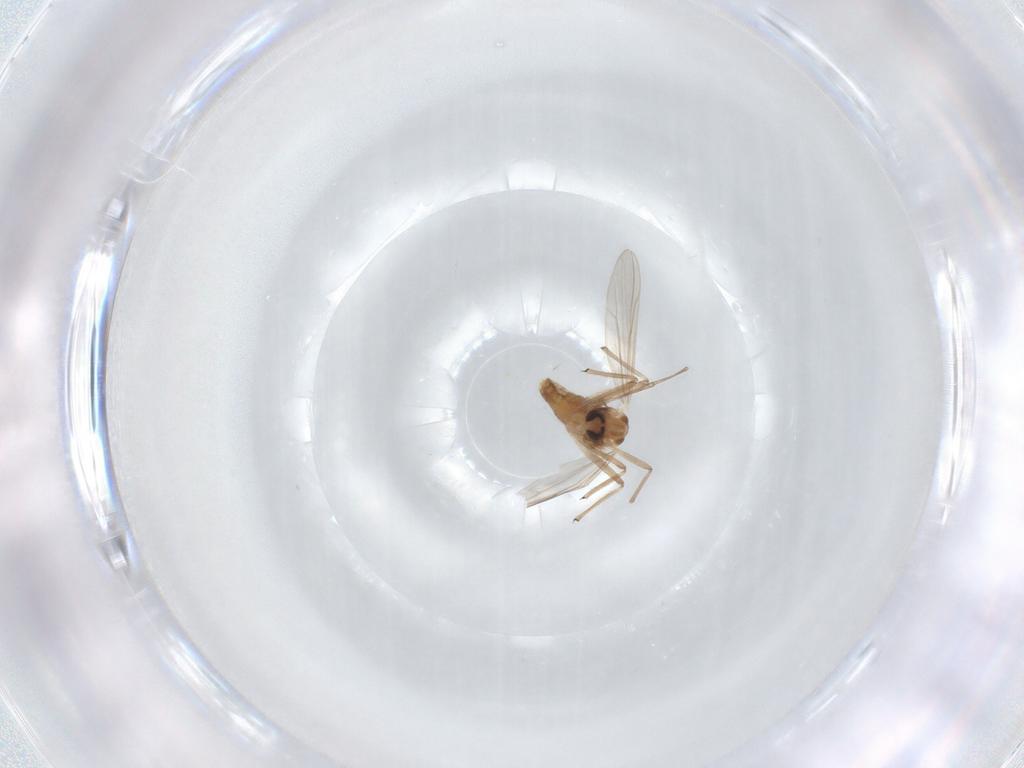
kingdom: Animalia
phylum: Arthropoda
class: Insecta
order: Diptera
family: Chironomidae
